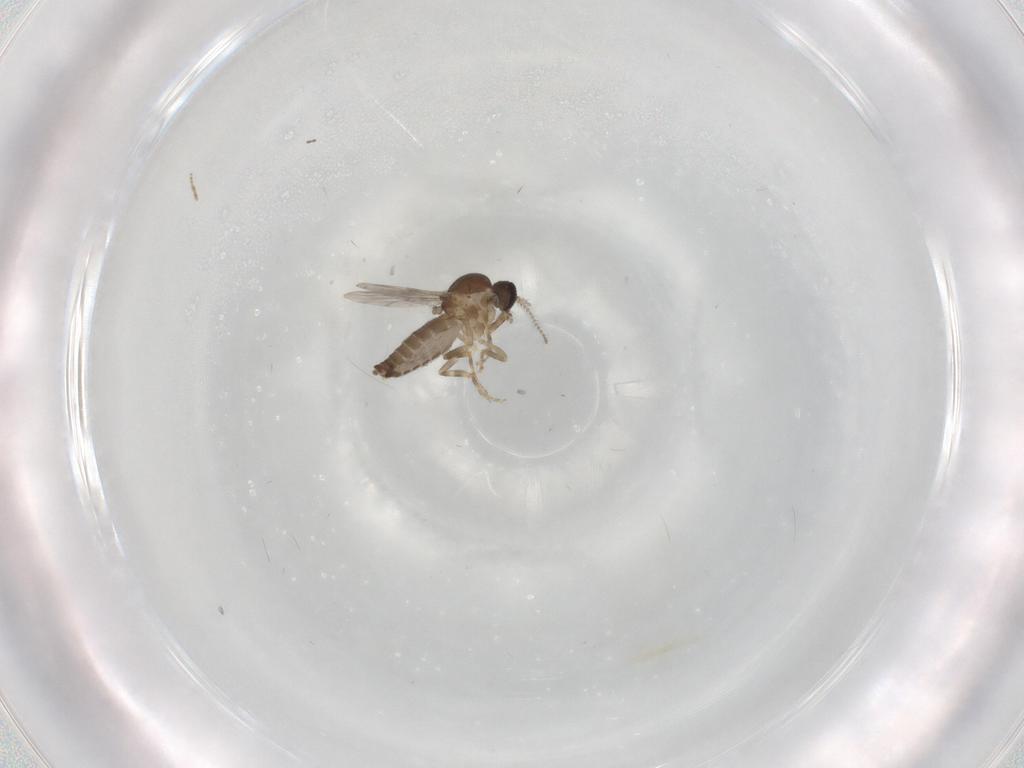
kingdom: Animalia
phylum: Arthropoda
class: Insecta
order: Diptera
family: Ceratopogonidae
